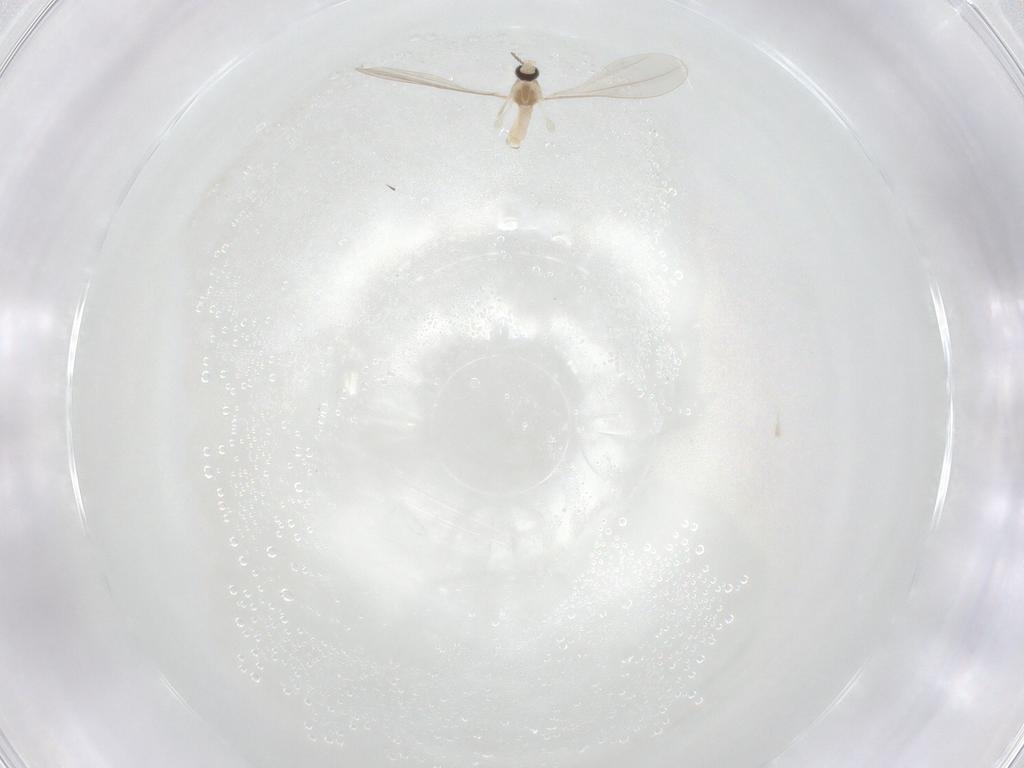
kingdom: Animalia
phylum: Arthropoda
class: Insecta
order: Diptera
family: Cecidomyiidae
